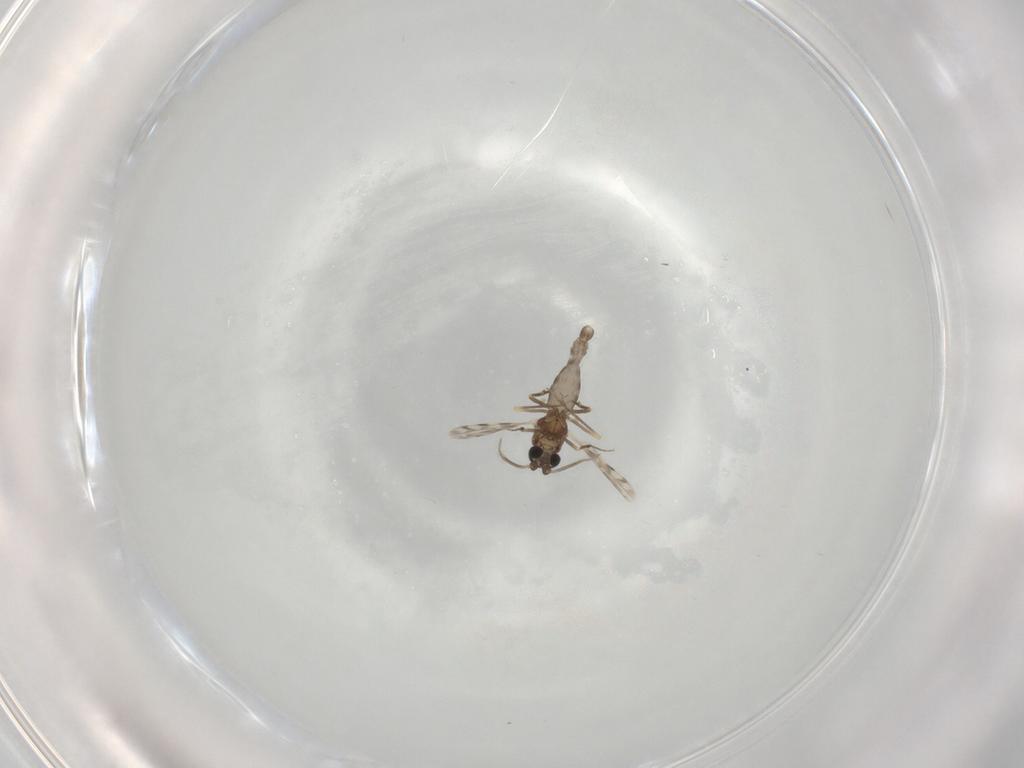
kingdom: Animalia
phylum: Arthropoda
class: Insecta
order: Diptera
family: Ceratopogonidae
